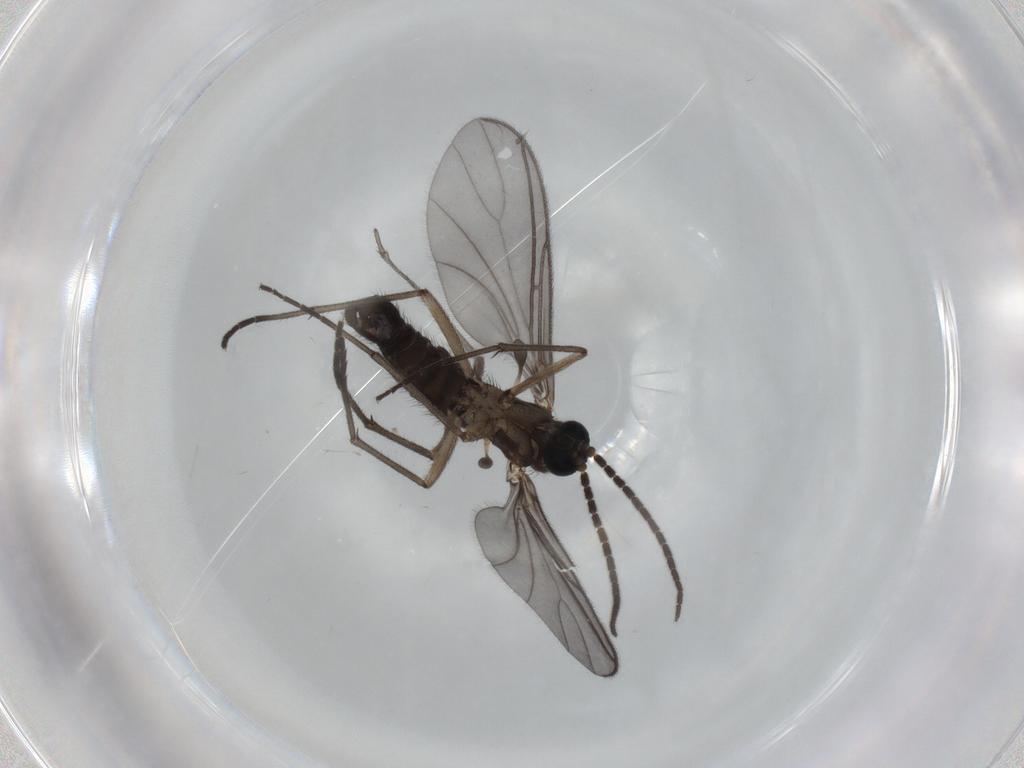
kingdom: Animalia
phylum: Arthropoda
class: Insecta
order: Diptera
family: Sciaridae
